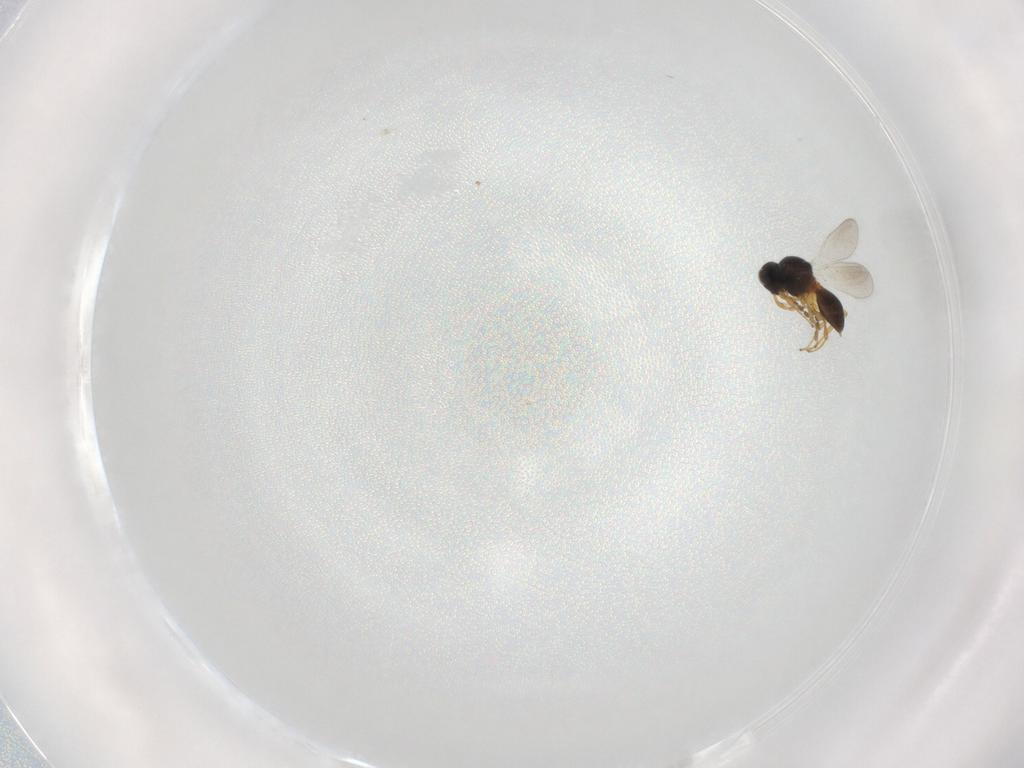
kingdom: Animalia
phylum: Arthropoda
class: Insecta
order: Hymenoptera
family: Platygastridae
